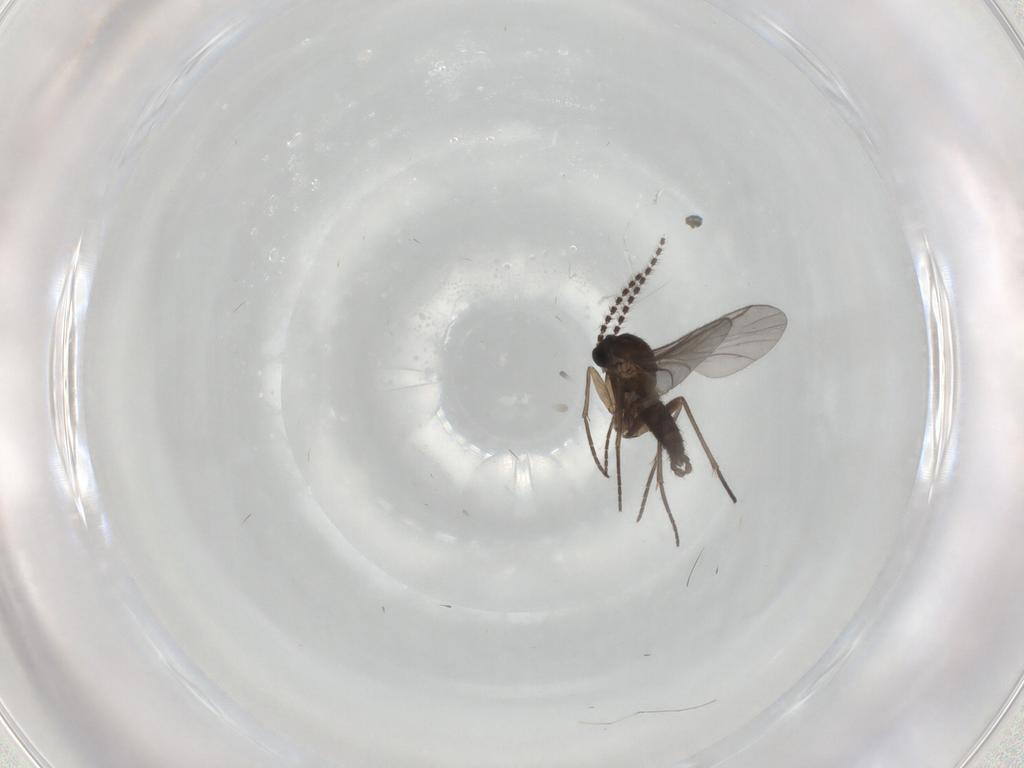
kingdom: Animalia
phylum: Arthropoda
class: Insecta
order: Diptera
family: Sciaridae
